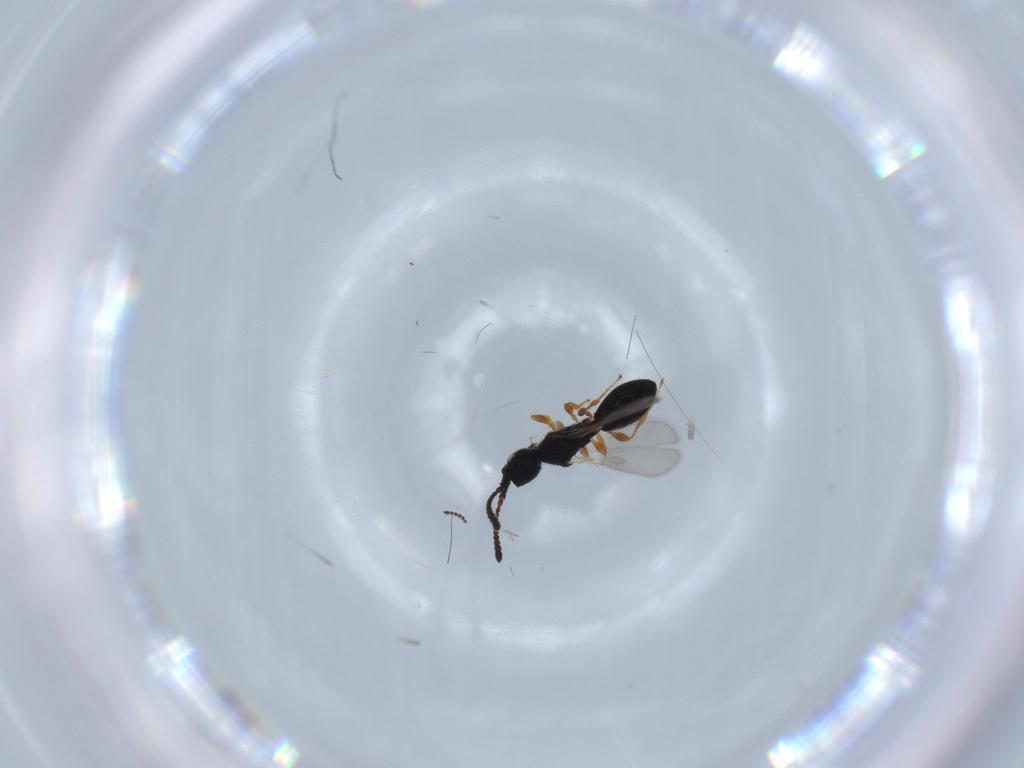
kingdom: Animalia
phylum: Arthropoda
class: Insecta
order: Hymenoptera
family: Diapriidae
